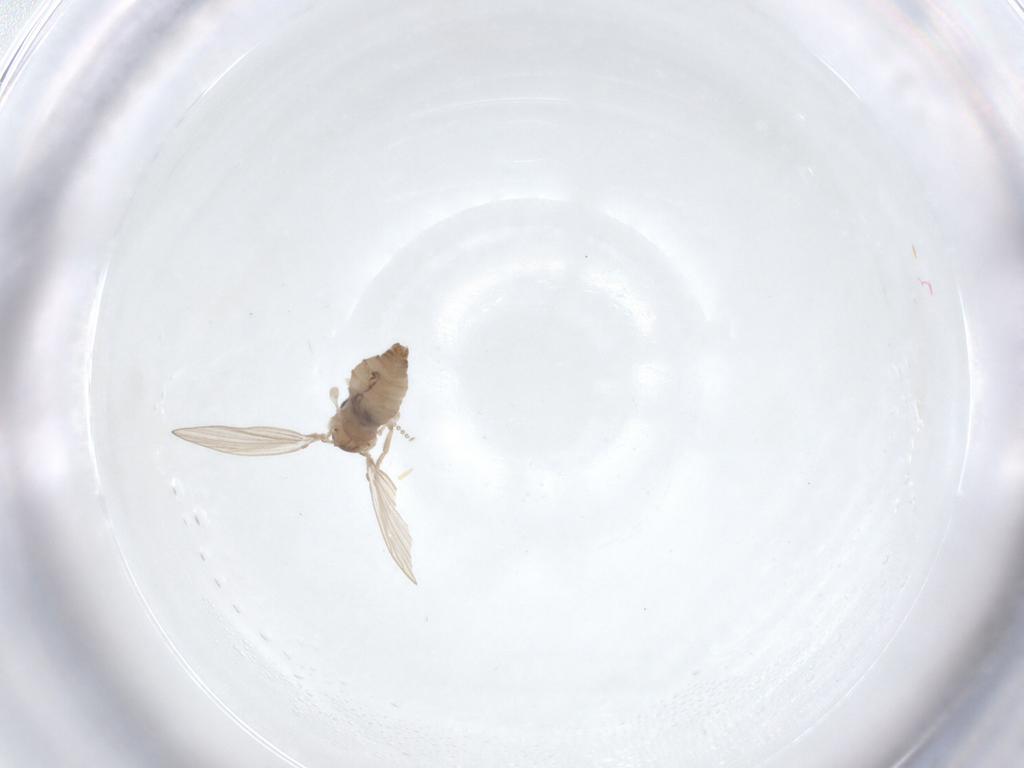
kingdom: Animalia
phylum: Arthropoda
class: Insecta
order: Diptera
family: Psychodidae
